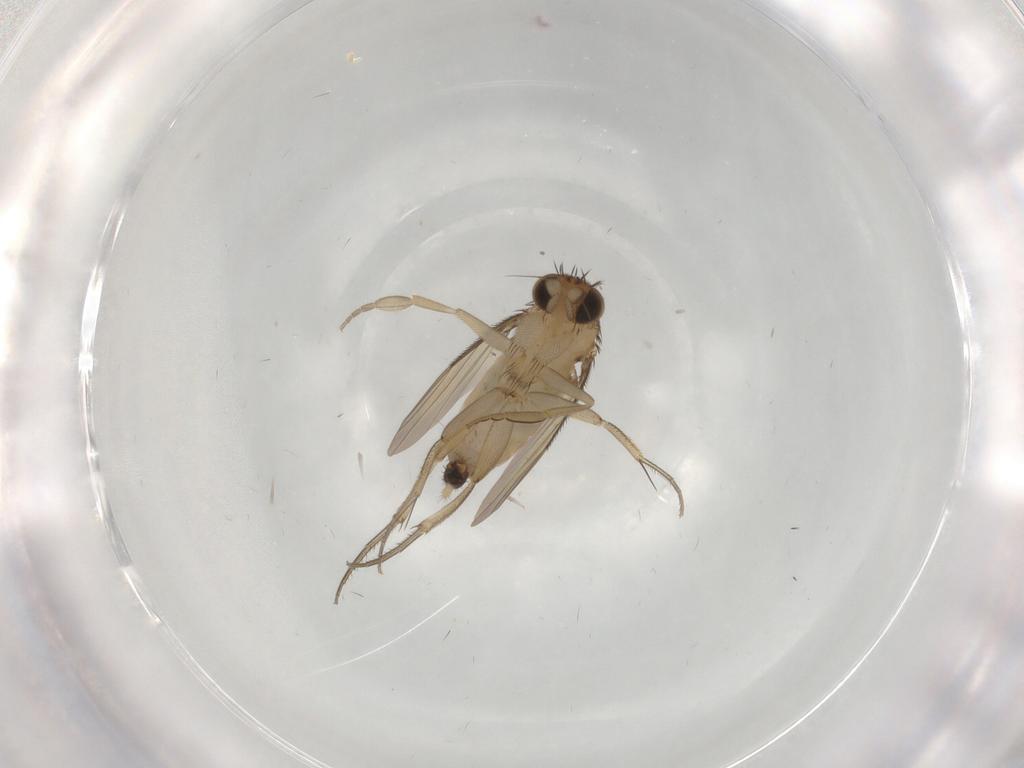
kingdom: Animalia
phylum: Arthropoda
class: Insecta
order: Diptera
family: Phoridae
